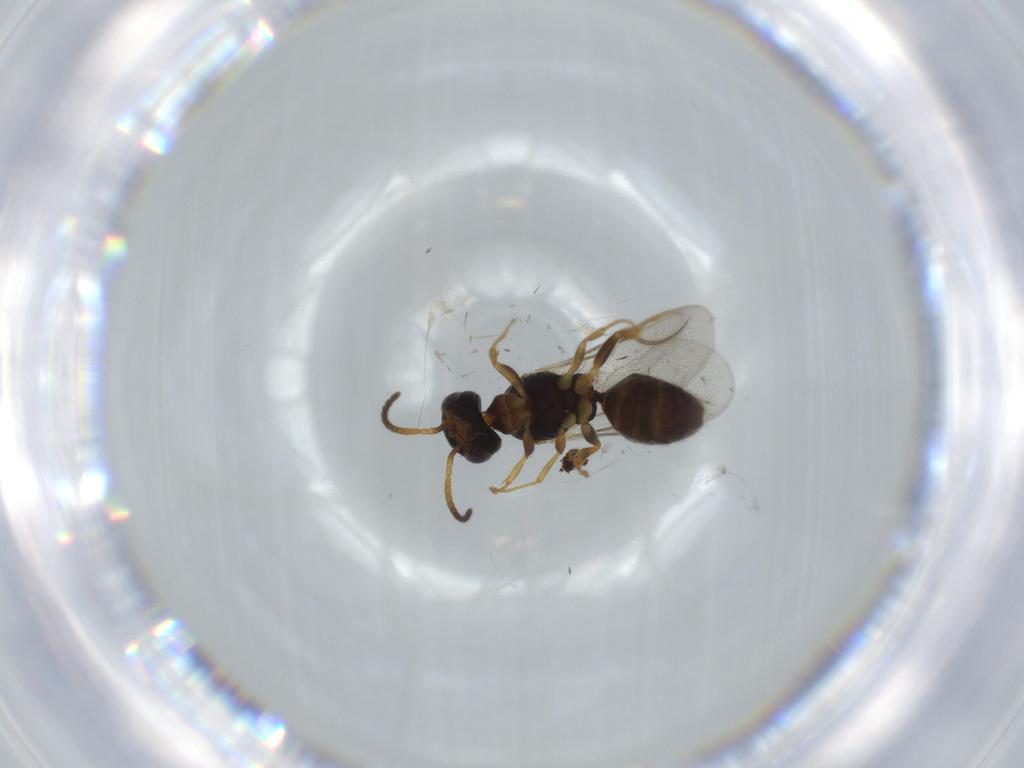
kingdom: Animalia
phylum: Arthropoda
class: Insecta
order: Hymenoptera
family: Bethylidae
